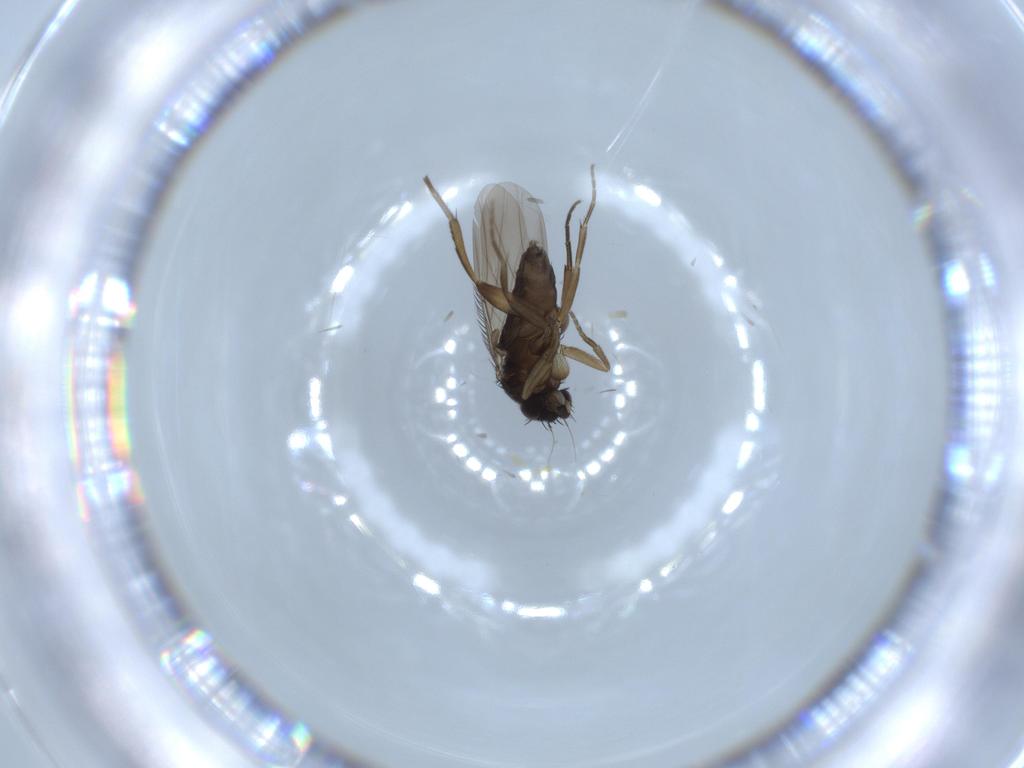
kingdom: Animalia
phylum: Arthropoda
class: Insecta
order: Diptera
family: Phoridae
